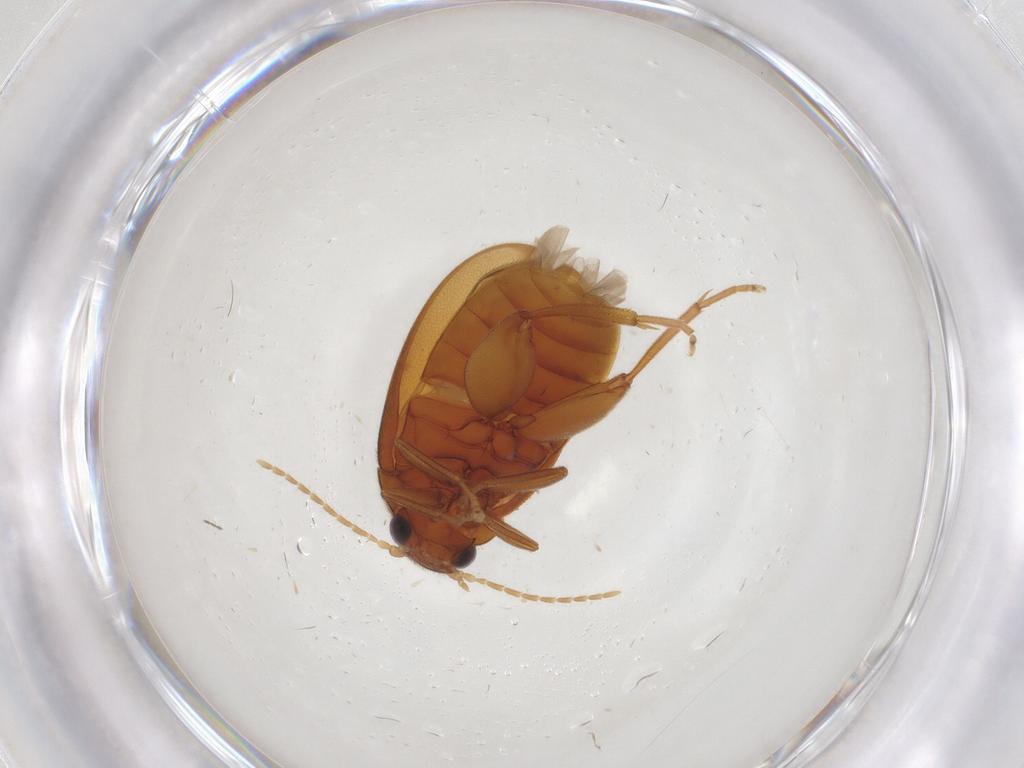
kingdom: Animalia
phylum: Arthropoda
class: Insecta
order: Coleoptera
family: Scirtidae
